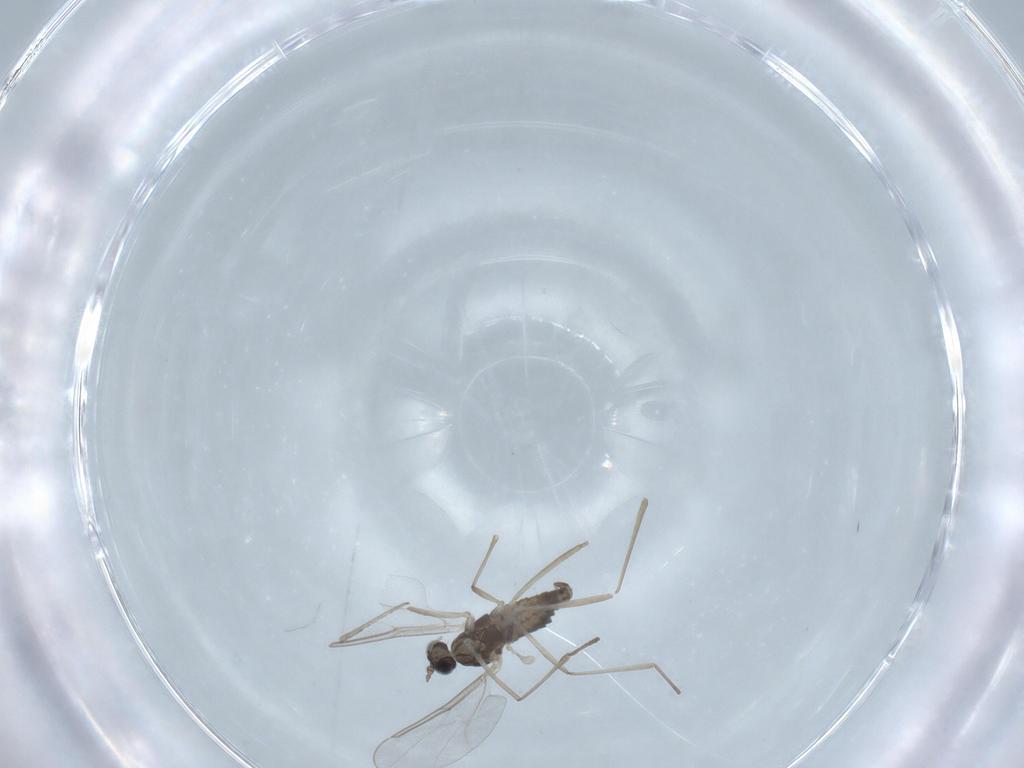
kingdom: Animalia
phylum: Arthropoda
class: Insecta
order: Diptera
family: Cecidomyiidae
